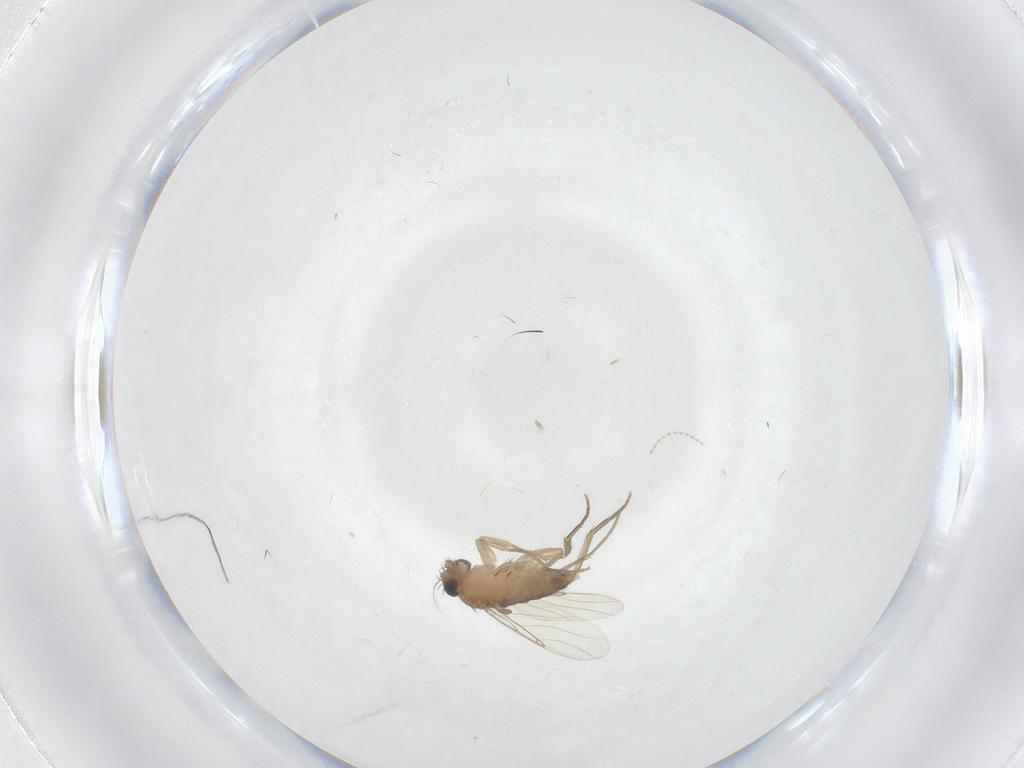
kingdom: Animalia
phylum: Arthropoda
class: Insecta
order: Diptera
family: Phoridae
